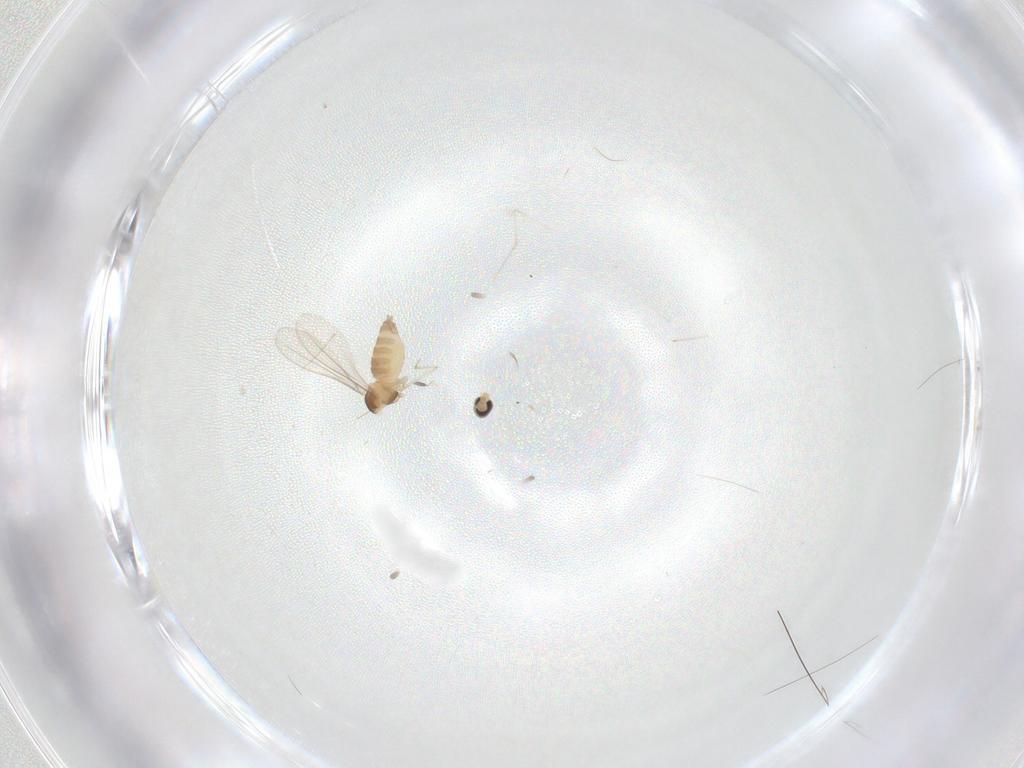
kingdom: Animalia
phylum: Arthropoda
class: Insecta
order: Diptera
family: Cecidomyiidae
